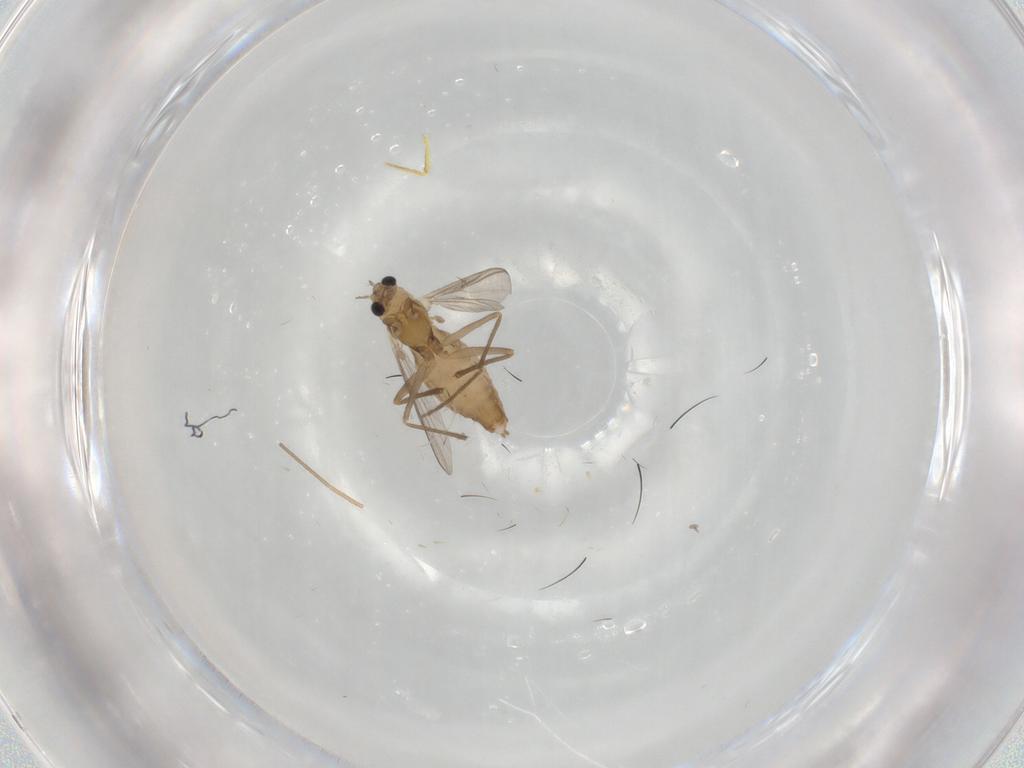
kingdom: Animalia
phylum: Arthropoda
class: Insecta
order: Diptera
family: Chironomidae
